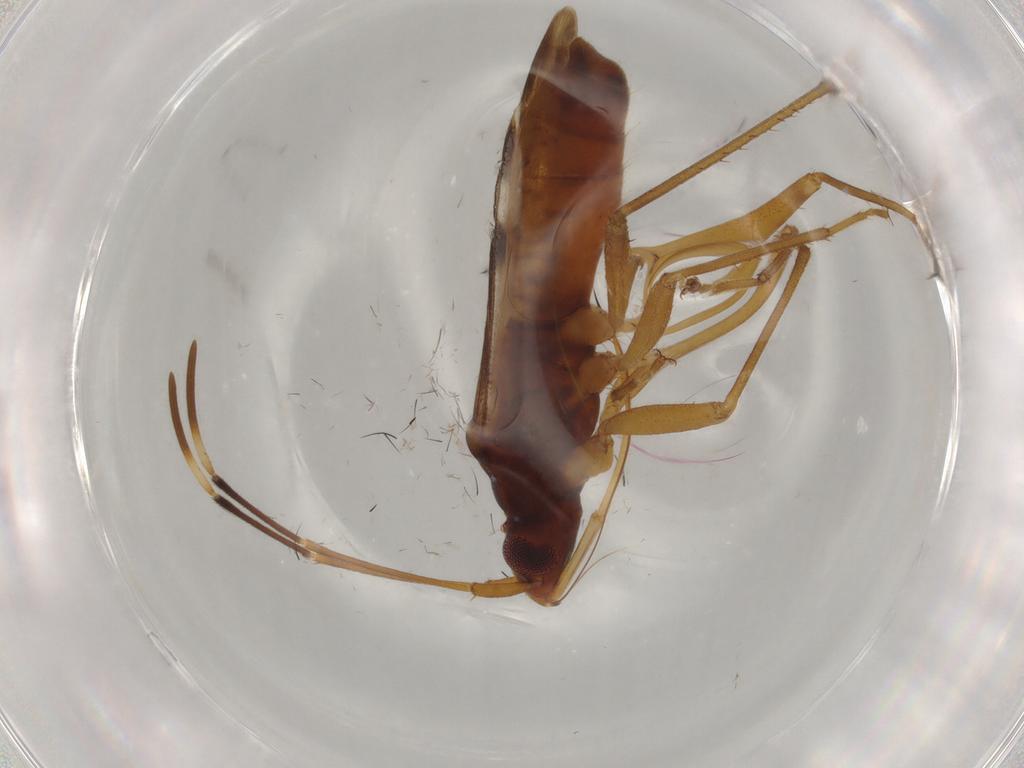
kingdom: Animalia
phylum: Arthropoda
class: Insecta
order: Hemiptera
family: Rhyparochromidae
